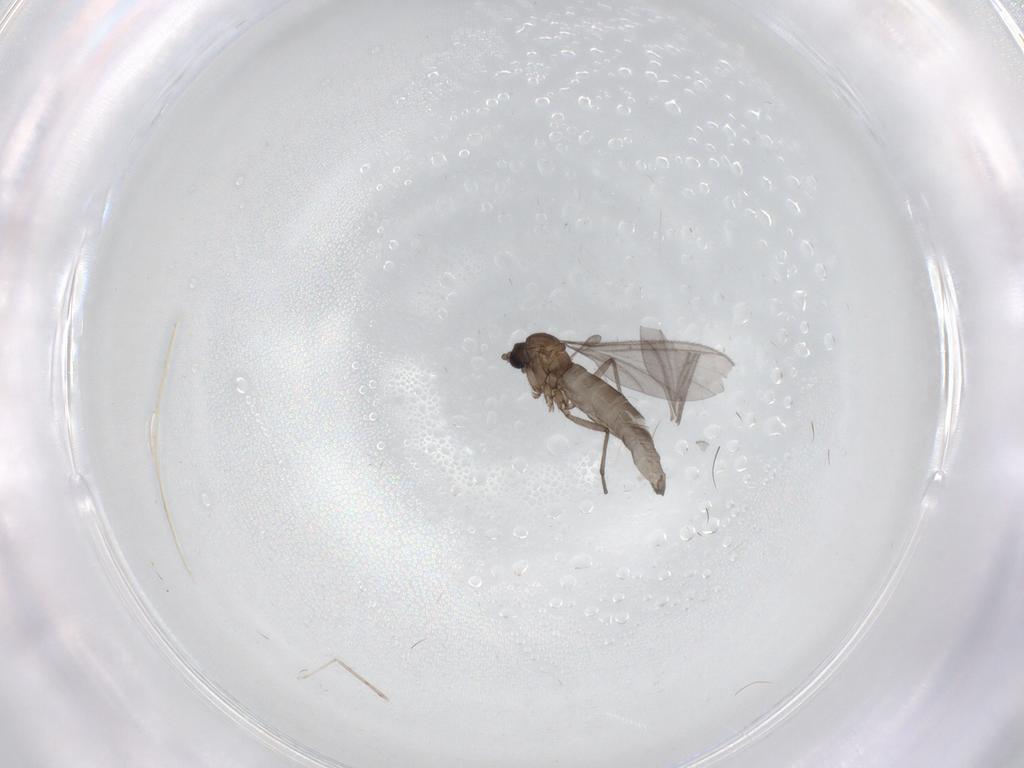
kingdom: Animalia
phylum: Arthropoda
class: Insecta
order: Diptera
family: Sciaridae
